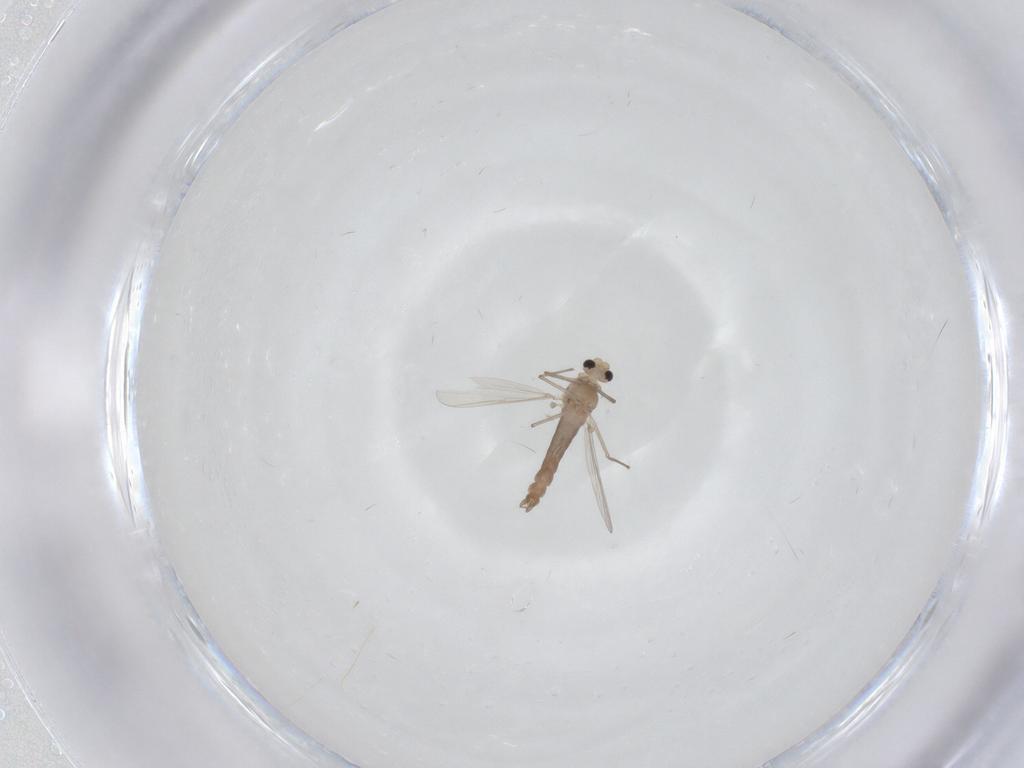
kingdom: Animalia
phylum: Arthropoda
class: Insecta
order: Diptera
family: Chironomidae
